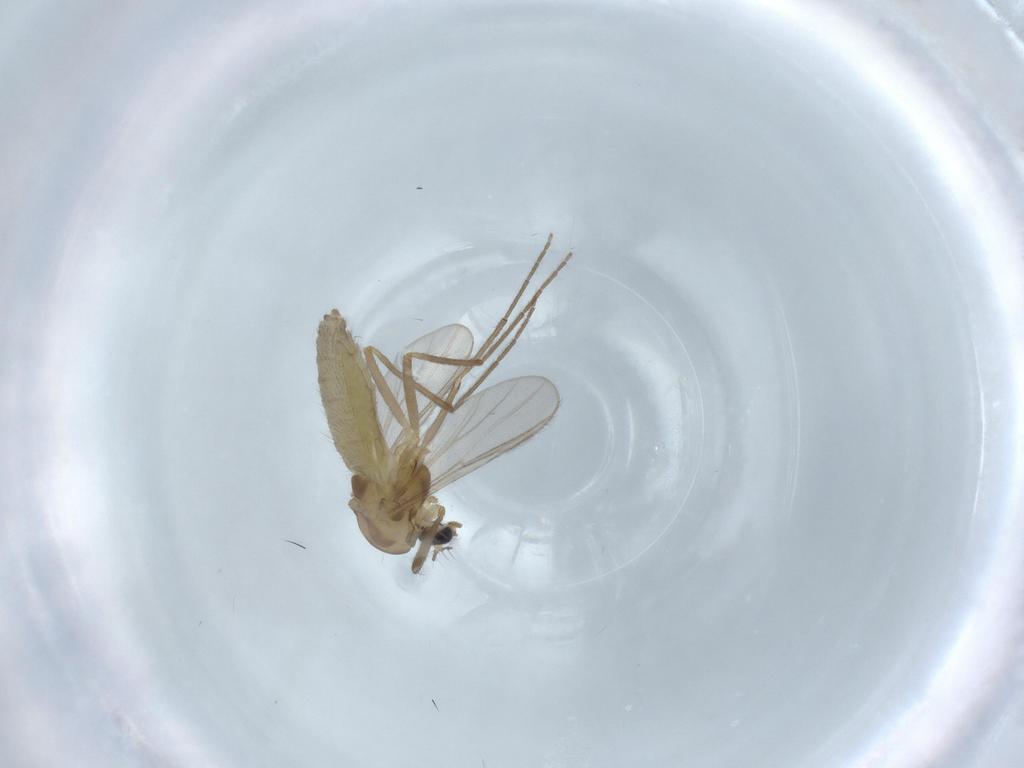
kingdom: Animalia
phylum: Arthropoda
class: Insecta
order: Diptera
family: Chironomidae
